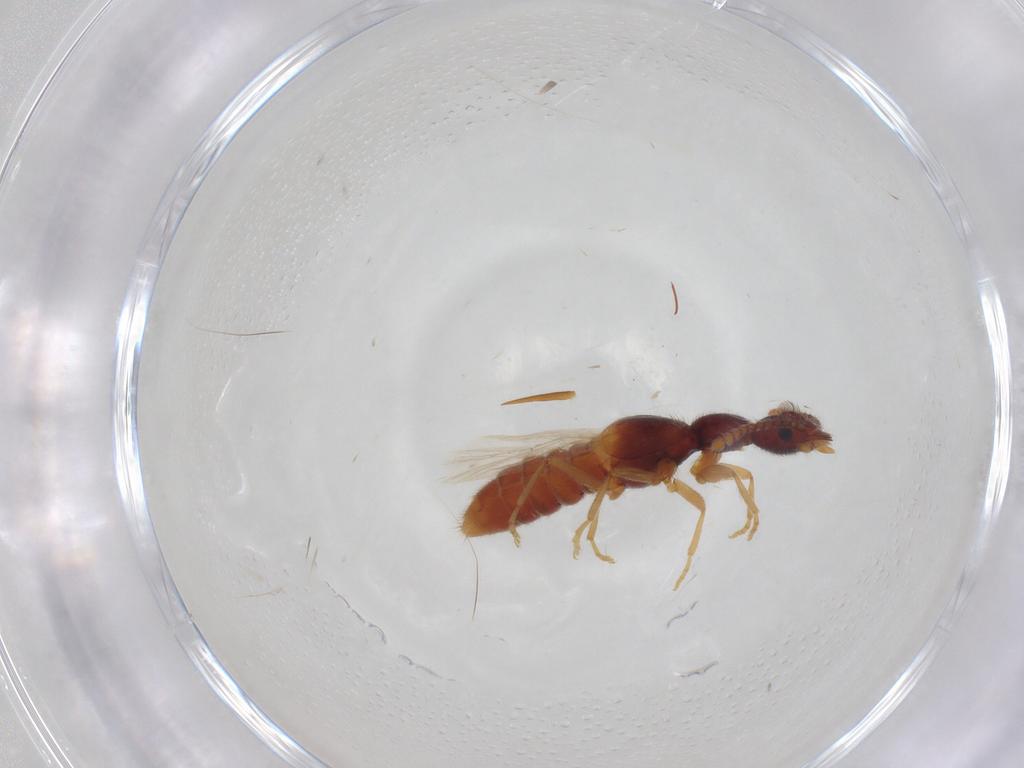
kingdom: Animalia
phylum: Arthropoda
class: Insecta
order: Coleoptera
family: Staphylinidae
